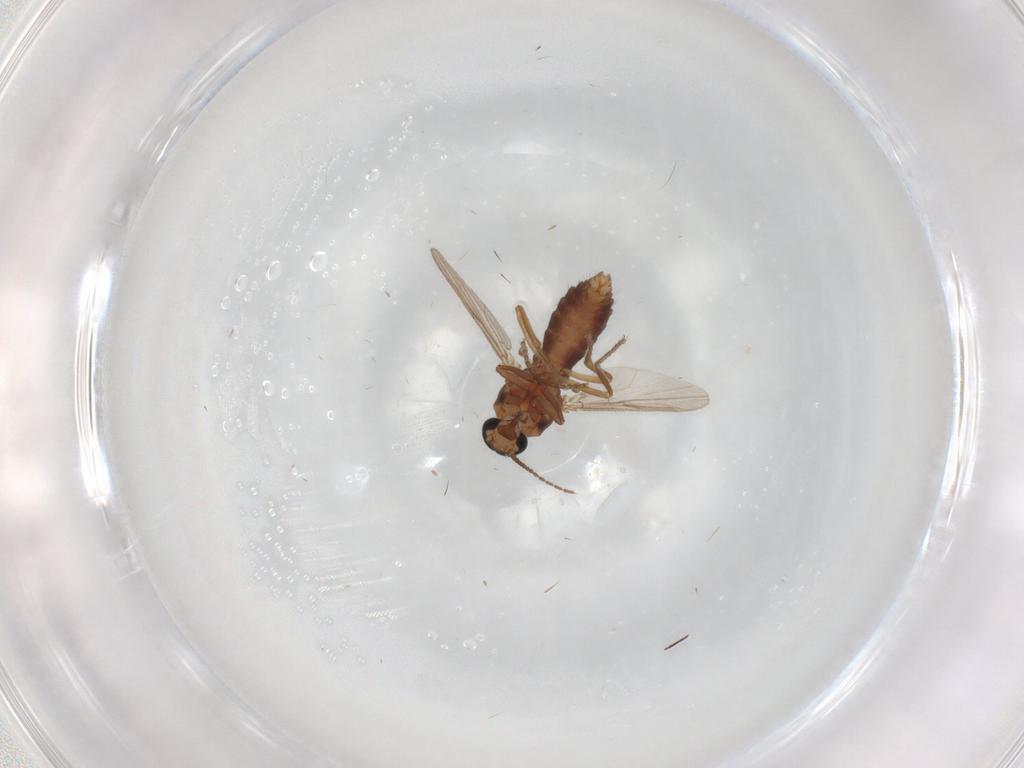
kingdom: Animalia
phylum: Arthropoda
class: Insecta
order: Diptera
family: Ceratopogonidae
